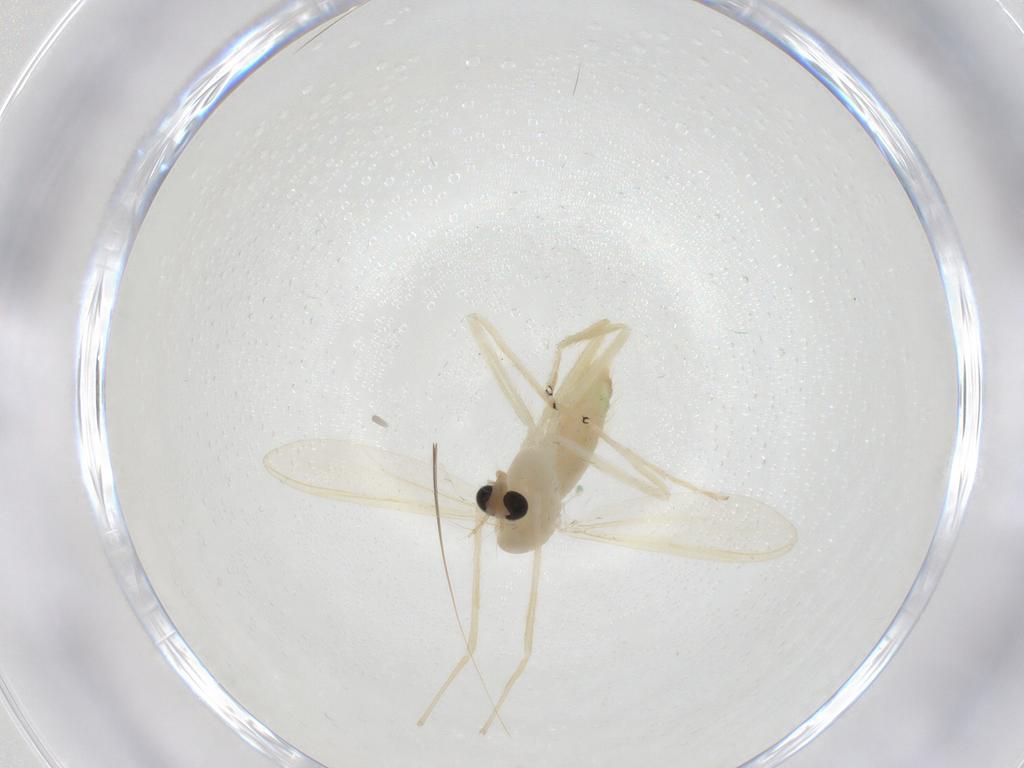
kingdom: Animalia
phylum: Arthropoda
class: Insecta
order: Diptera
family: Chironomidae
